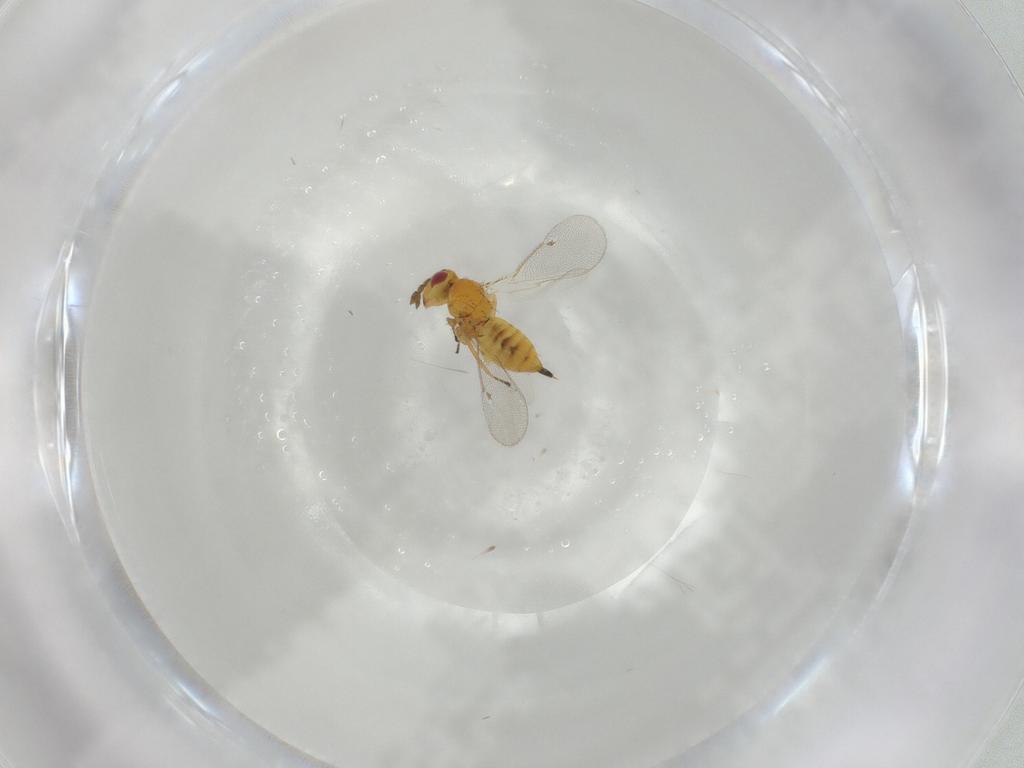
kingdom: Animalia
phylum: Arthropoda
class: Insecta
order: Hymenoptera
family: Eulophidae
